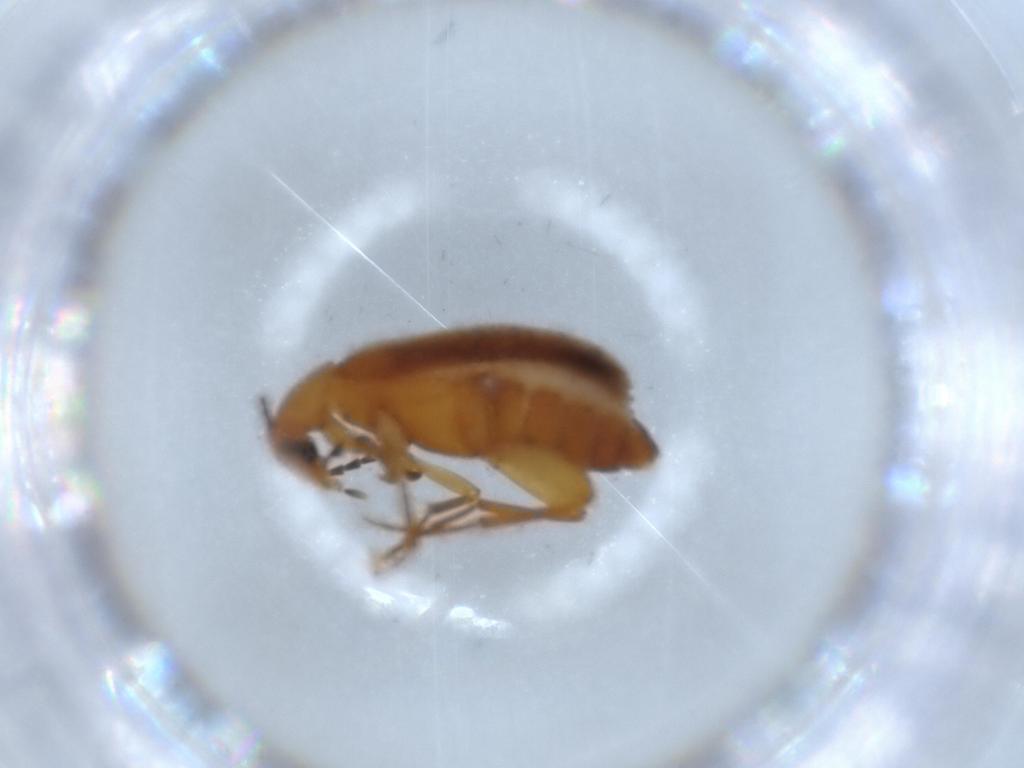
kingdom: Animalia
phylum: Arthropoda
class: Insecta
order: Coleoptera
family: Scraptiidae
